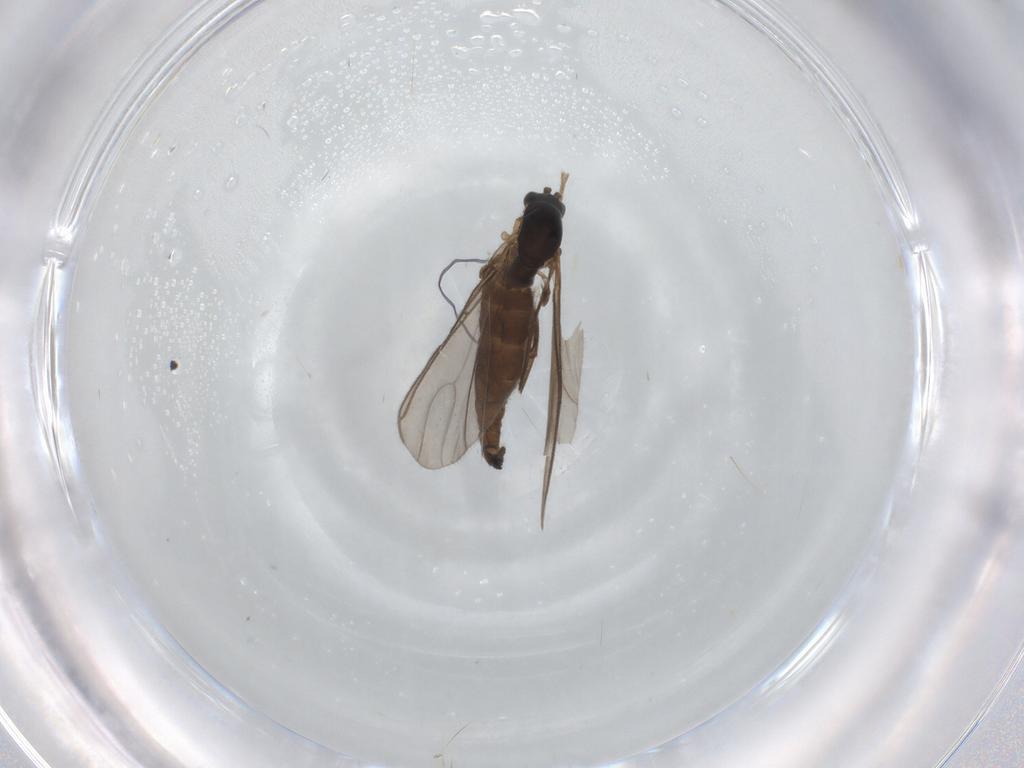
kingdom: Animalia
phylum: Arthropoda
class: Insecta
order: Diptera
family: Sciaridae
